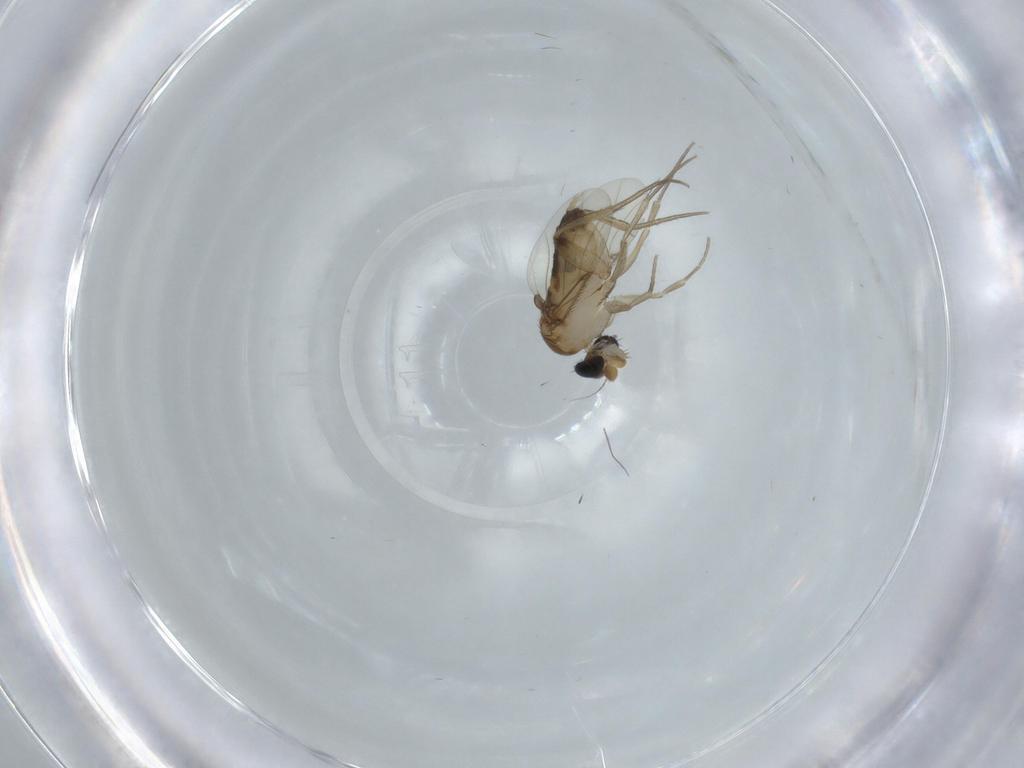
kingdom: Animalia
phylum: Arthropoda
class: Insecta
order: Diptera
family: Phoridae
